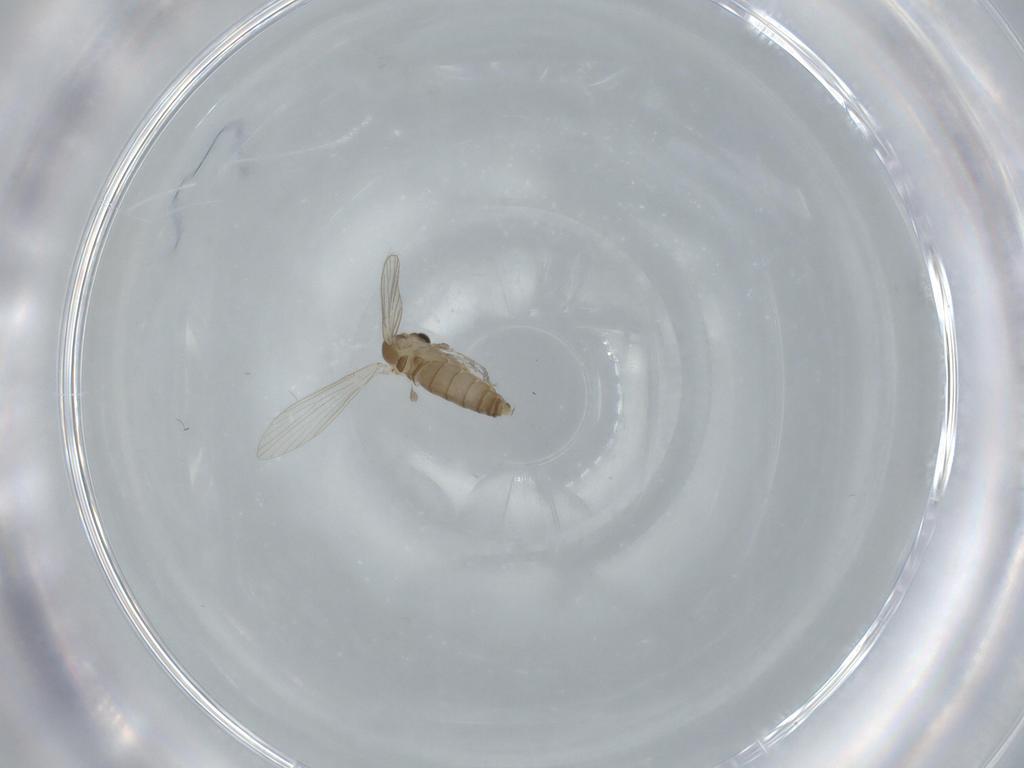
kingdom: Animalia
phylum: Arthropoda
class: Insecta
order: Diptera
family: Psychodidae
